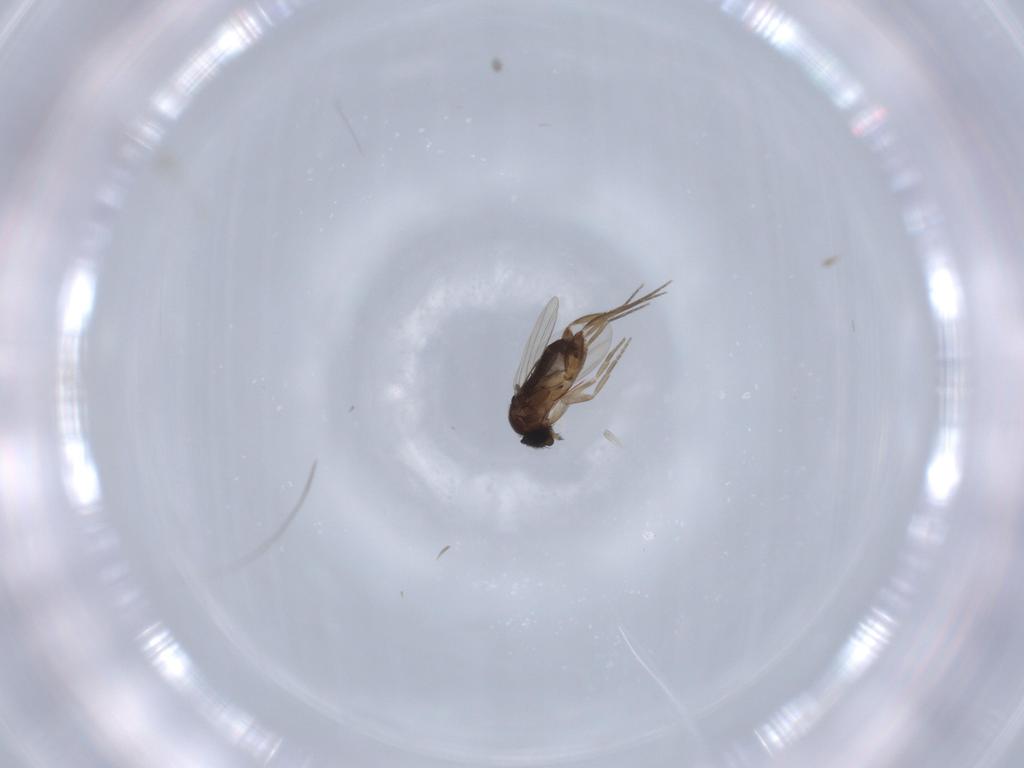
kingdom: Animalia
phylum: Arthropoda
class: Insecta
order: Diptera
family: Phoridae
